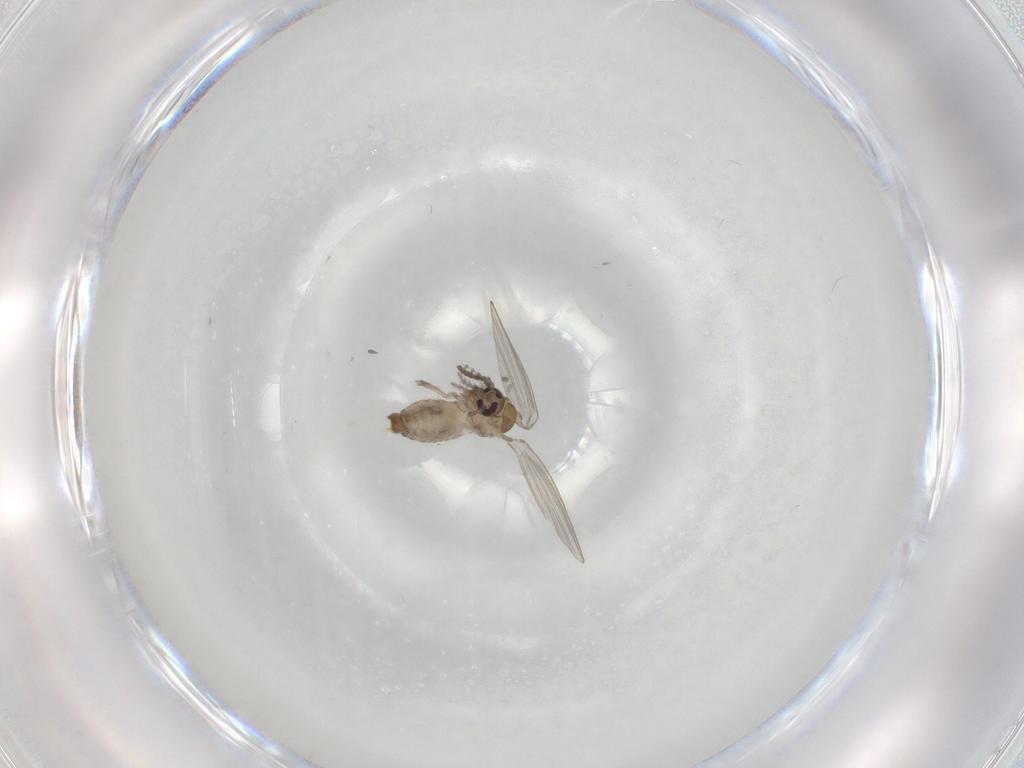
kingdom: Animalia
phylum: Arthropoda
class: Insecta
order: Diptera
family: Psychodidae
